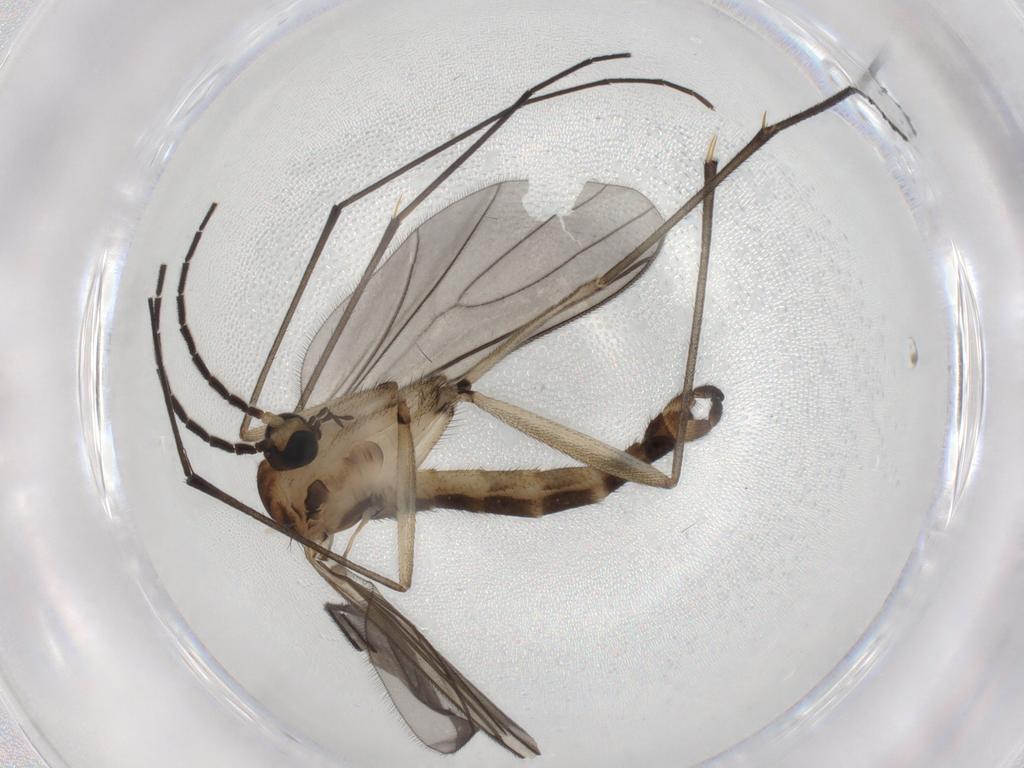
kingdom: Animalia
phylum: Arthropoda
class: Insecta
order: Diptera
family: Sciaridae
